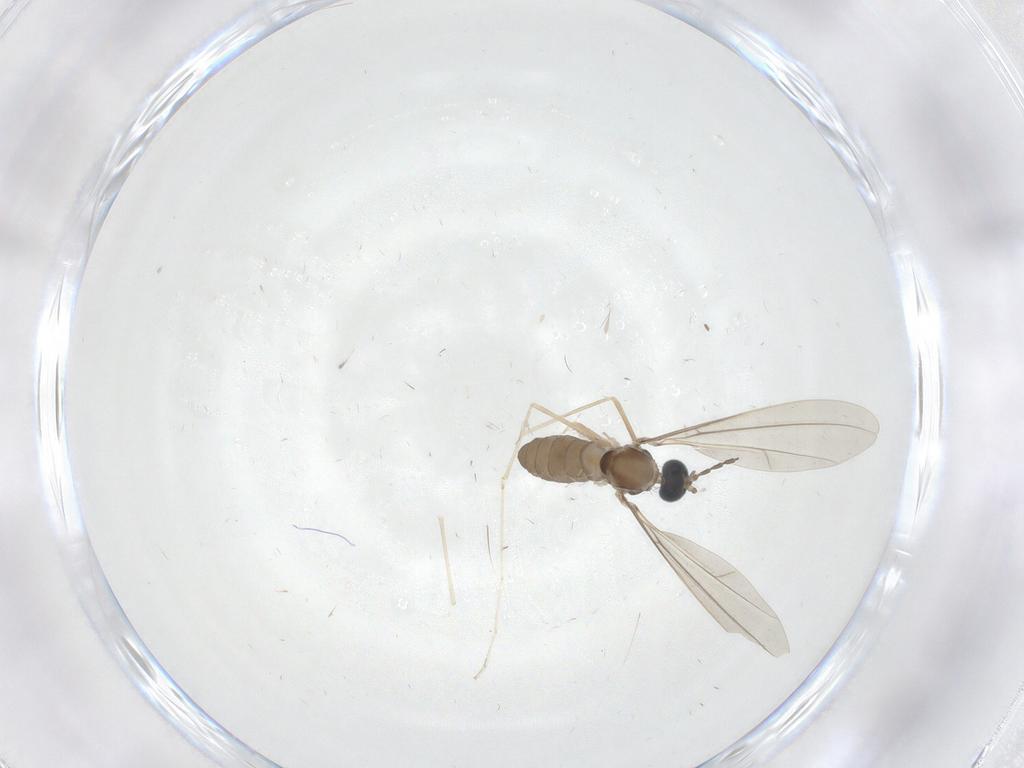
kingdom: Animalia
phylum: Arthropoda
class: Insecta
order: Diptera
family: Cecidomyiidae
